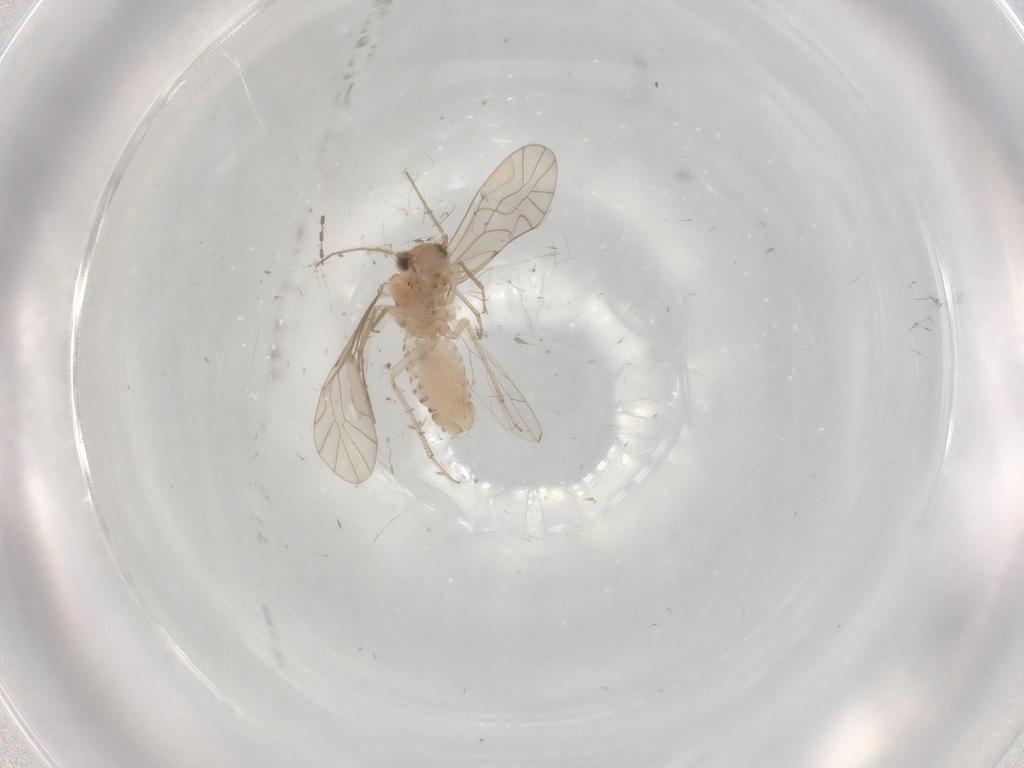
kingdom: Animalia
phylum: Arthropoda
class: Insecta
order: Psocodea
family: Lachesillidae
